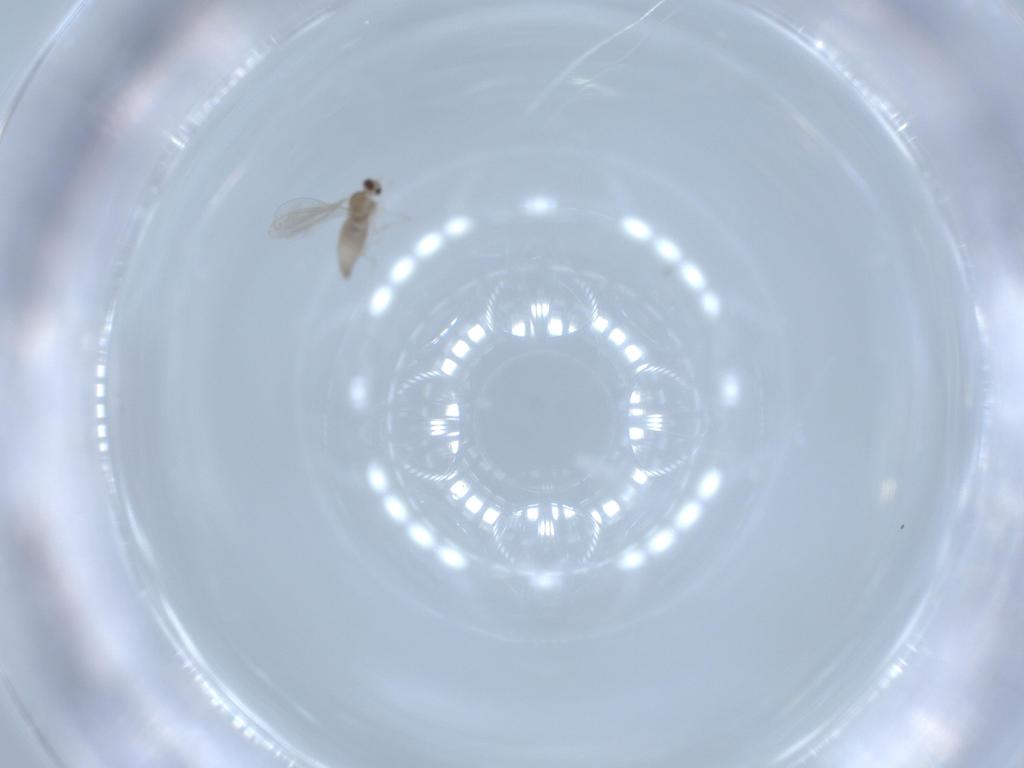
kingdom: Animalia
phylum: Arthropoda
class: Insecta
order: Diptera
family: Cecidomyiidae
